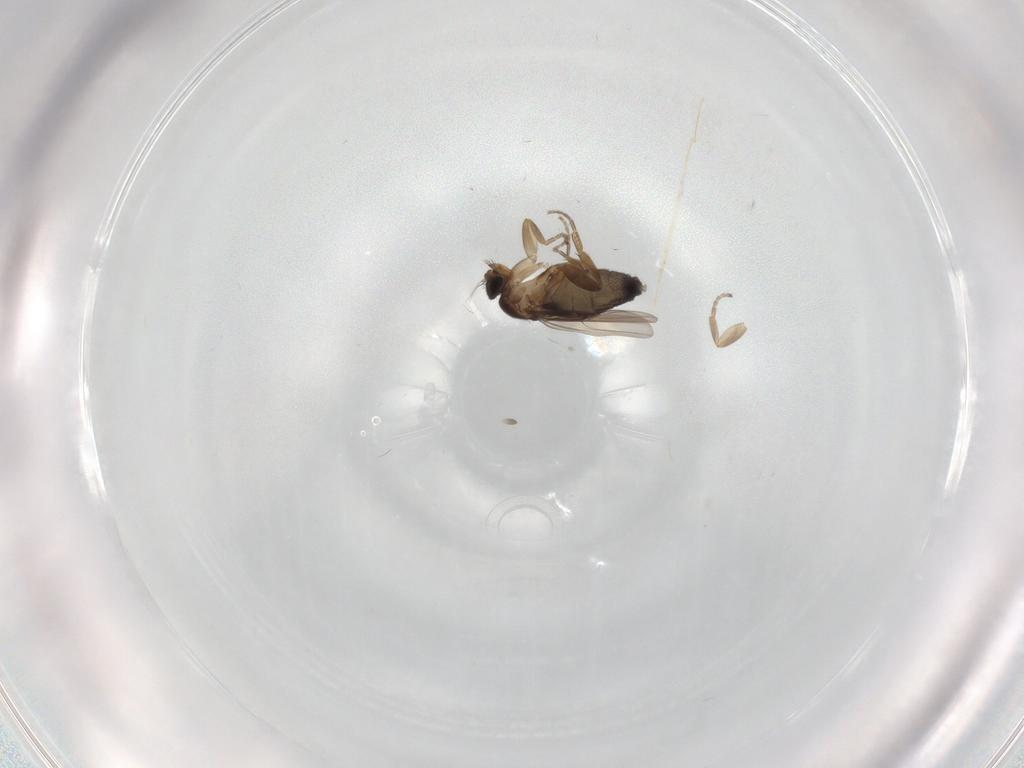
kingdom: Animalia
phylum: Arthropoda
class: Insecta
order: Diptera
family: Phoridae
